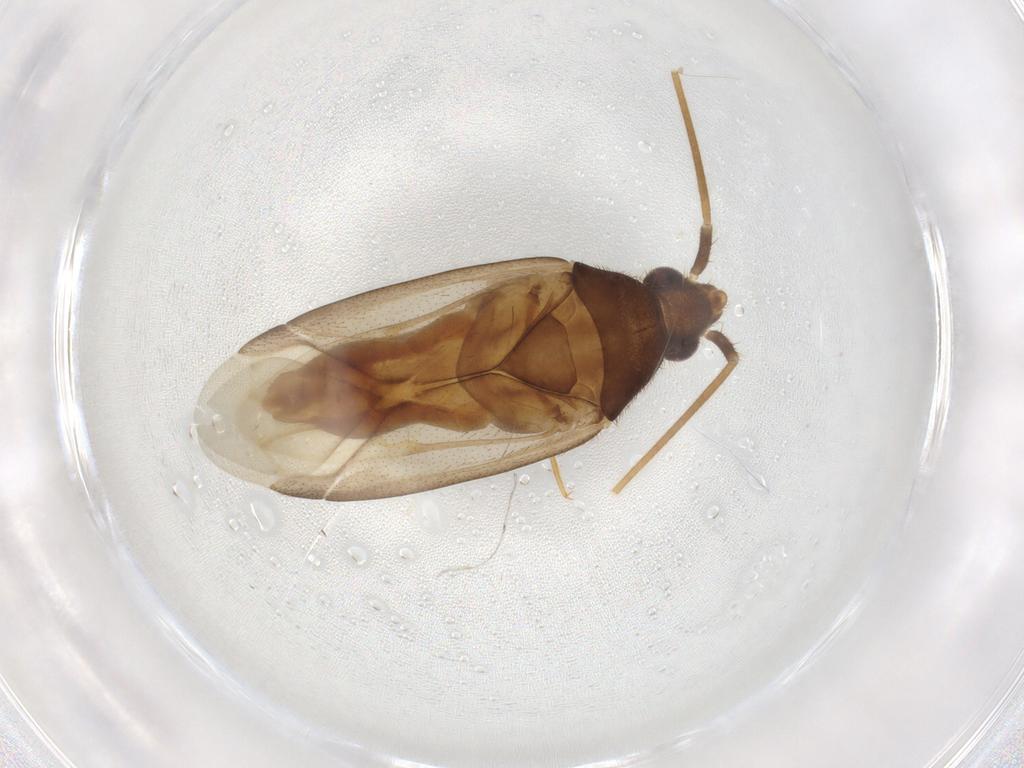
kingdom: Animalia
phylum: Arthropoda
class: Insecta
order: Hemiptera
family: Miridae
